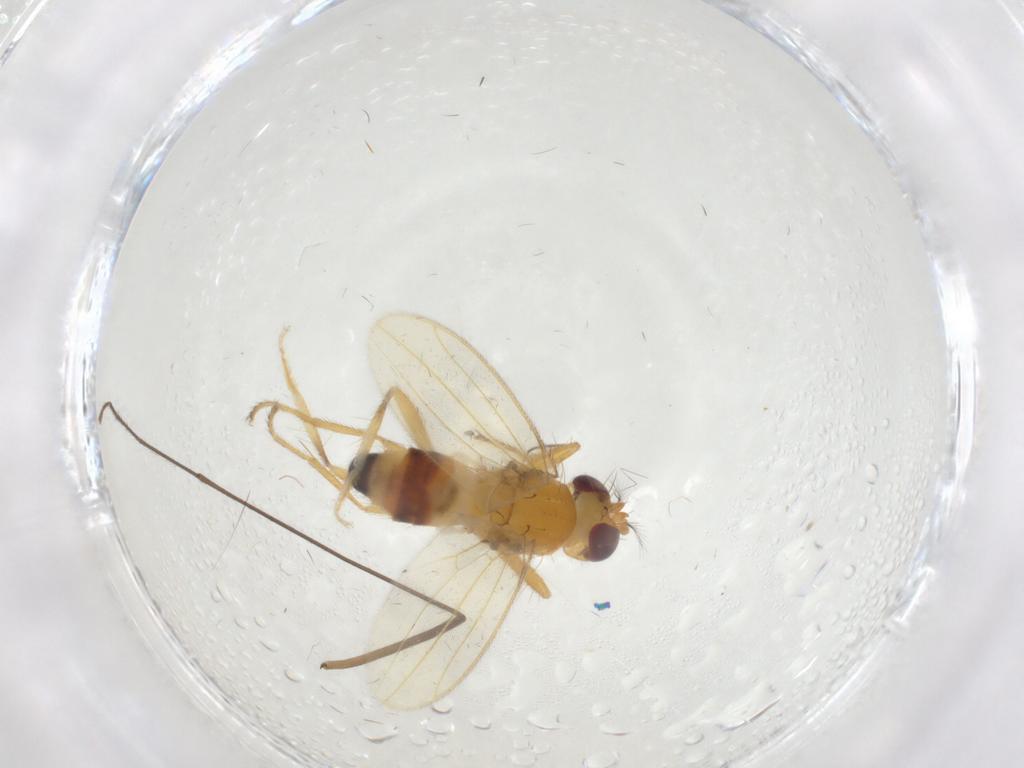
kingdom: Animalia
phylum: Arthropoda
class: Insecta
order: Diptera
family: Periscelididae
